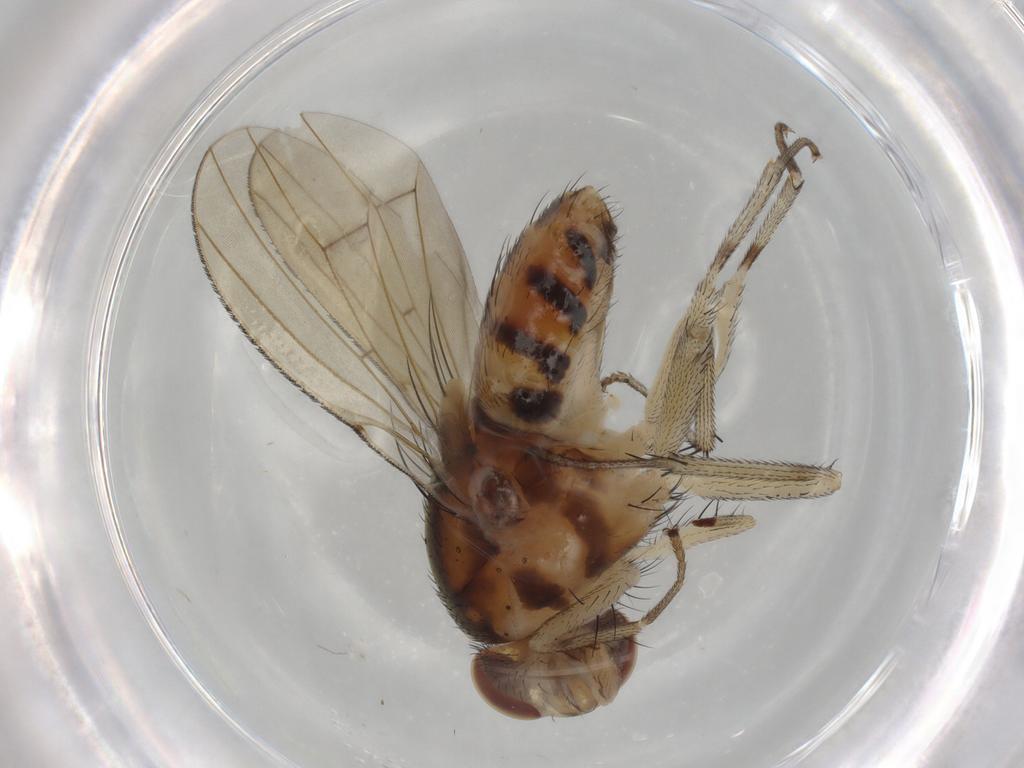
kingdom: Animalia
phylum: Arthropoda
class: Insecta
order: Diptera
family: Lauxaniidae
